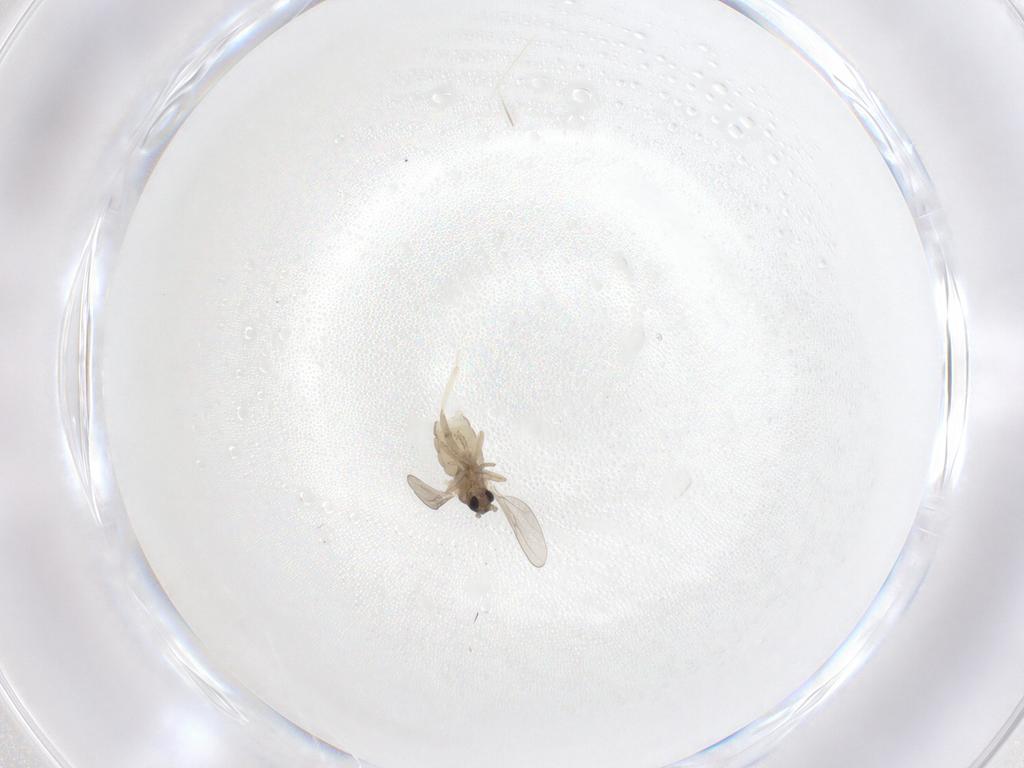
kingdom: Animalia
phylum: Arthropoda
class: Insecta
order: Diptera
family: Cecidomyiidae
